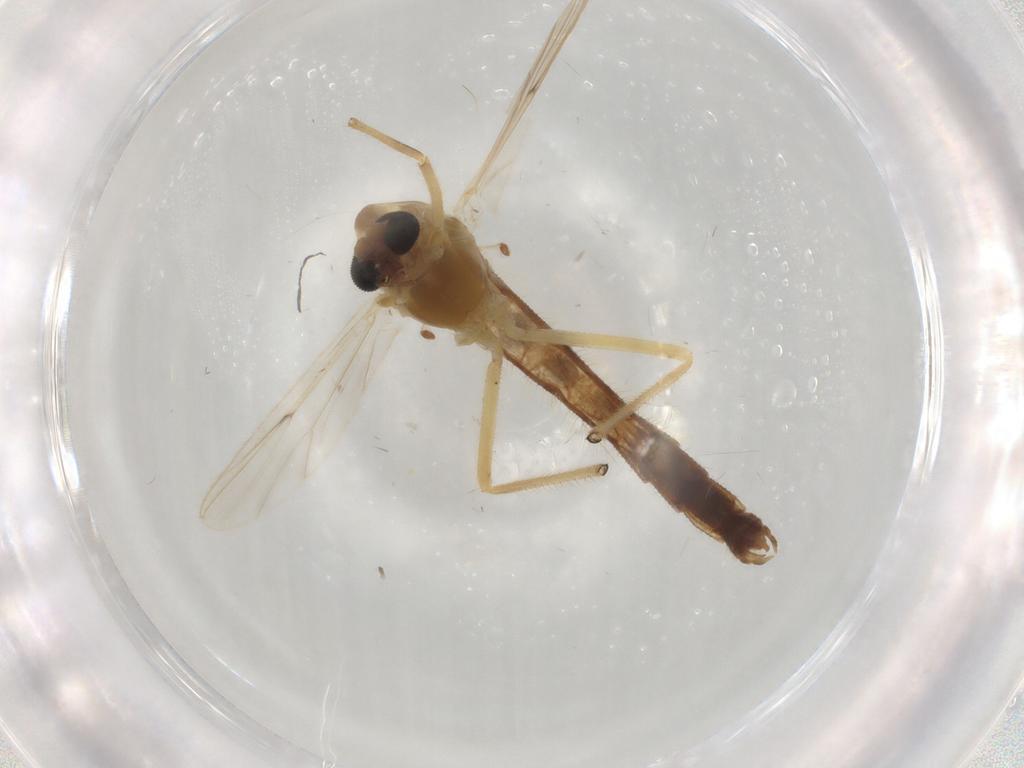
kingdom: Animalia
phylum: Arthropoda
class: Insecta
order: Diptera
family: Chironomidae
